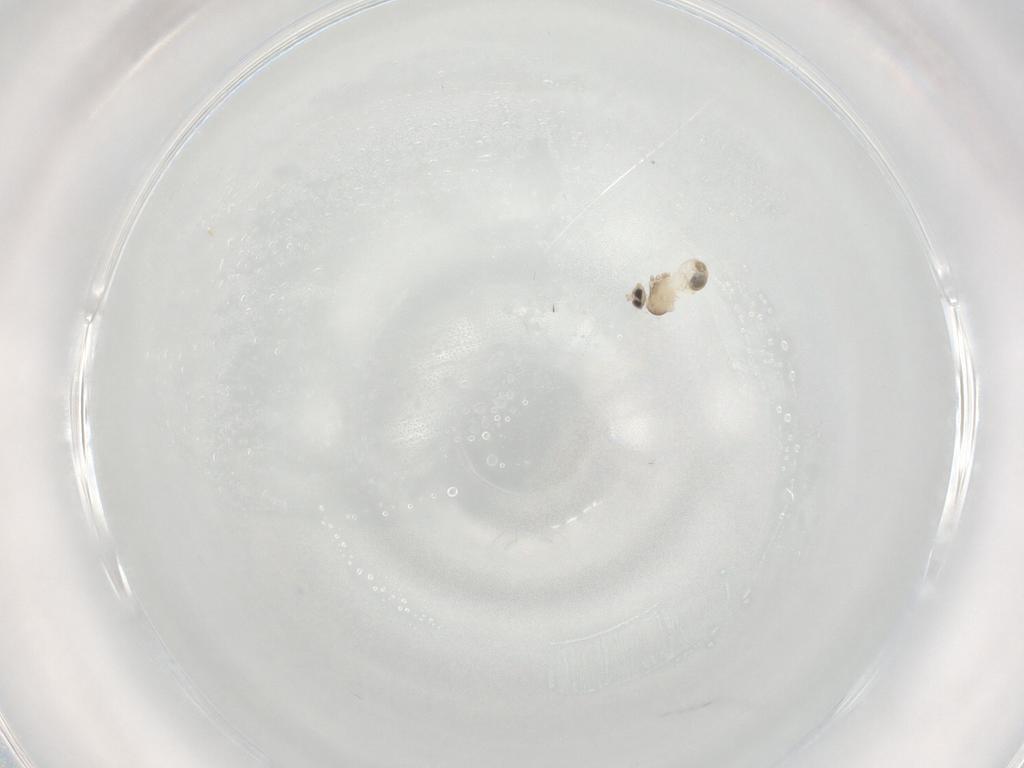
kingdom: Animalia
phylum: Arthropoda
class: Insecta
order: Diptera
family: Cecidomyiidae
